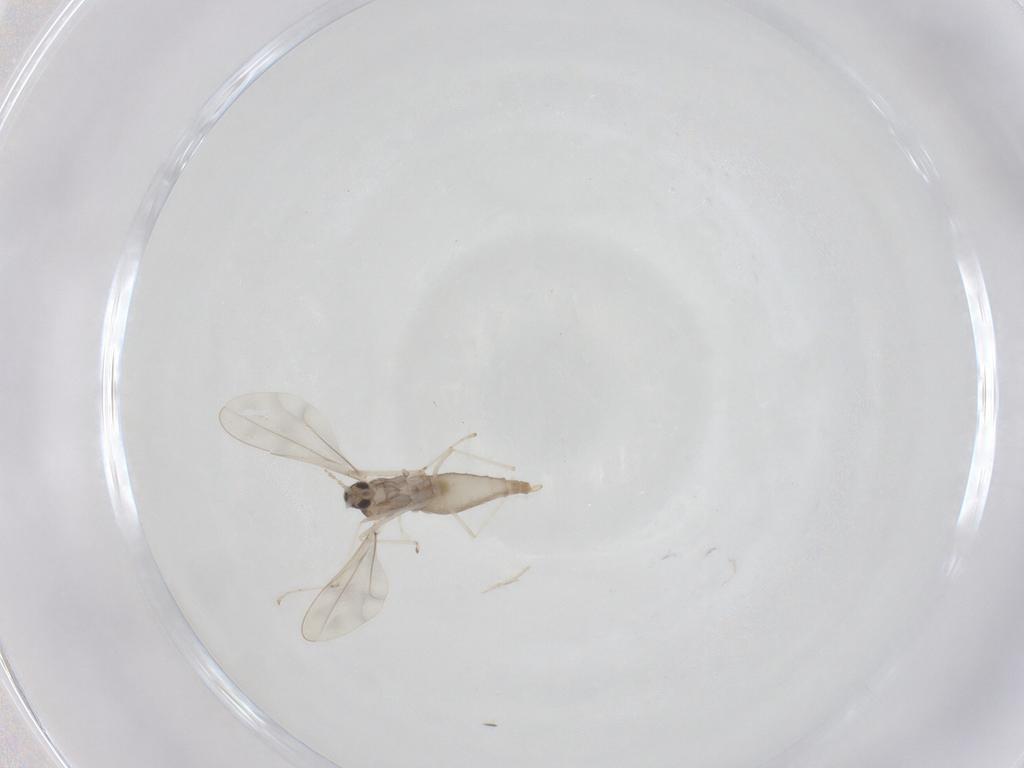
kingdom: Animalia
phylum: Arthropoda
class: Insecta
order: Diptera
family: Cecidomyiidae
